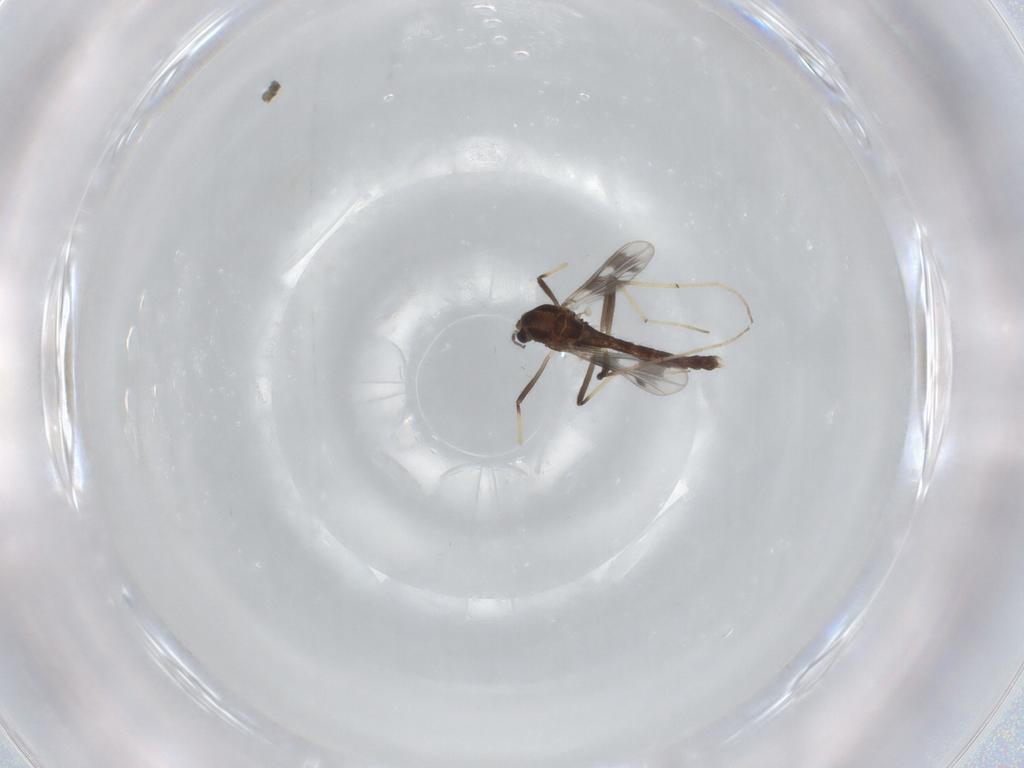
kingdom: Animalia
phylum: Arthropoda
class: Insecta
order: Diptera
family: Chironomidae
